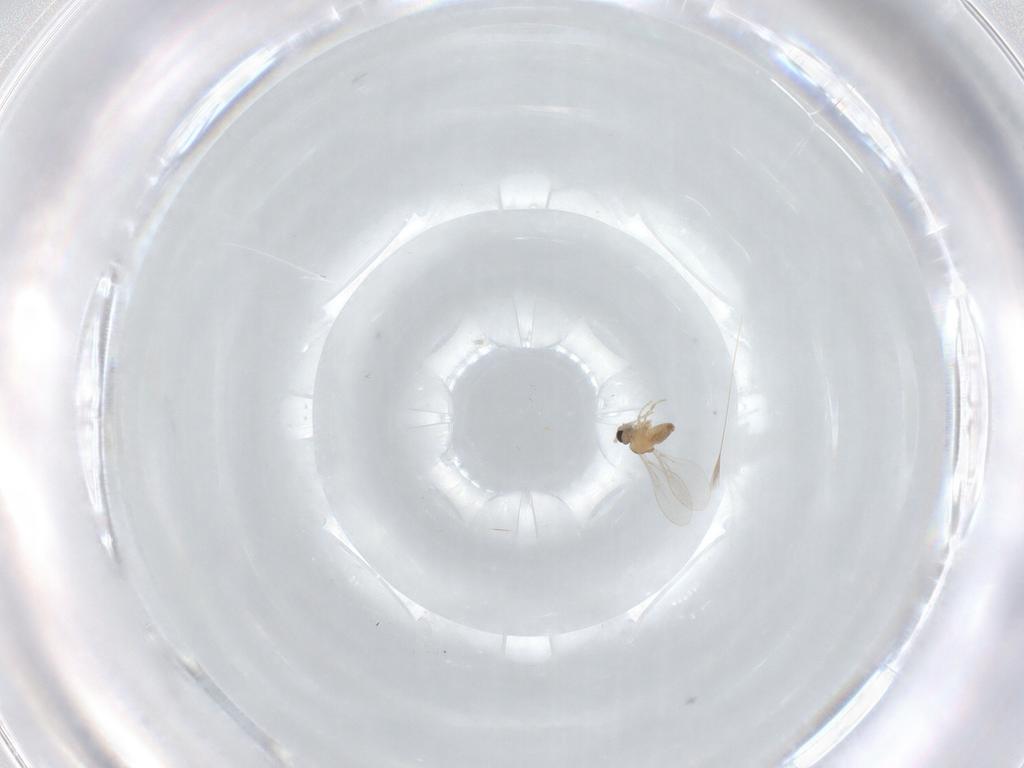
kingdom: Animalia
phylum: Arthropoda
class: Insecta
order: Diptera
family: Cecidomyiidae
